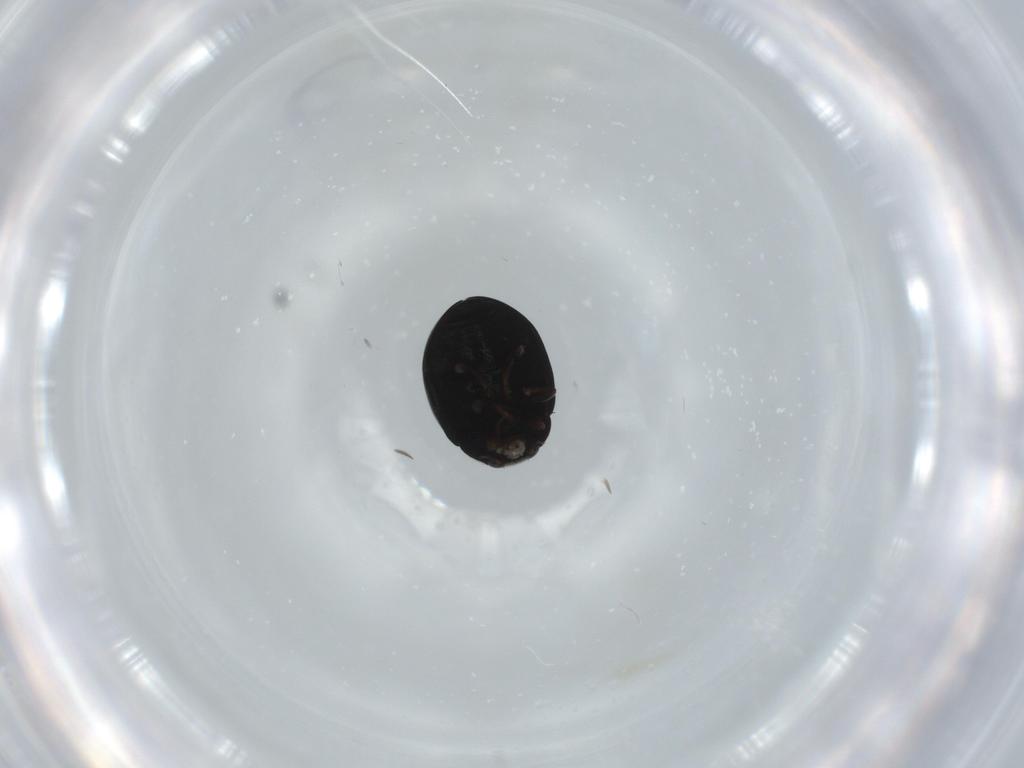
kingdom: Animalia
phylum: Arthropoda
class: Insecta
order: Coleoptera
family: Coccinellidae
